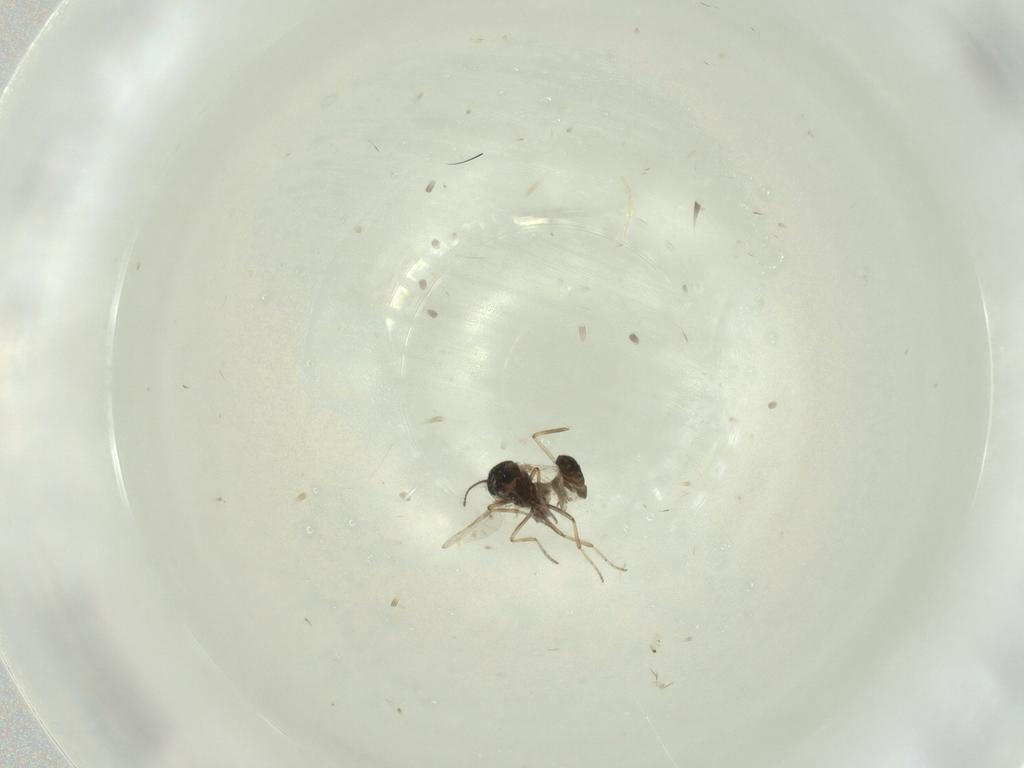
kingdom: Animalia
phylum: Arthropoda
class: Insecta
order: Diptera
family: Ceratopogonidae
